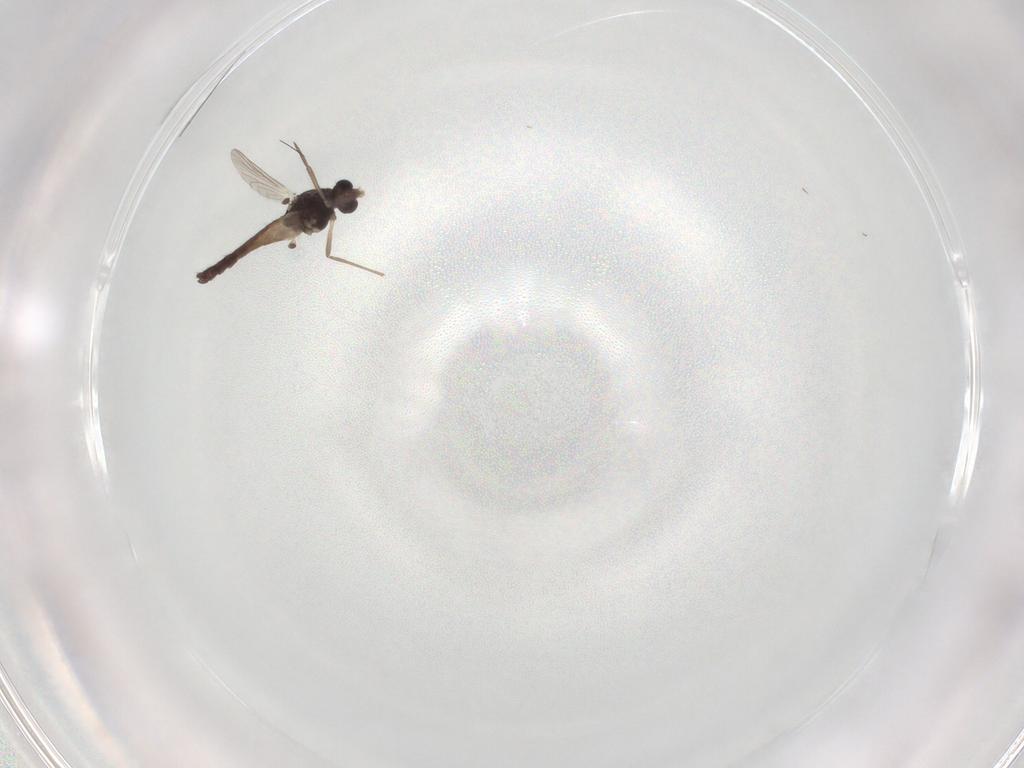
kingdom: Animalia
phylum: Arthropoda
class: Insecta
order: Diptera
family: Chironomidae
